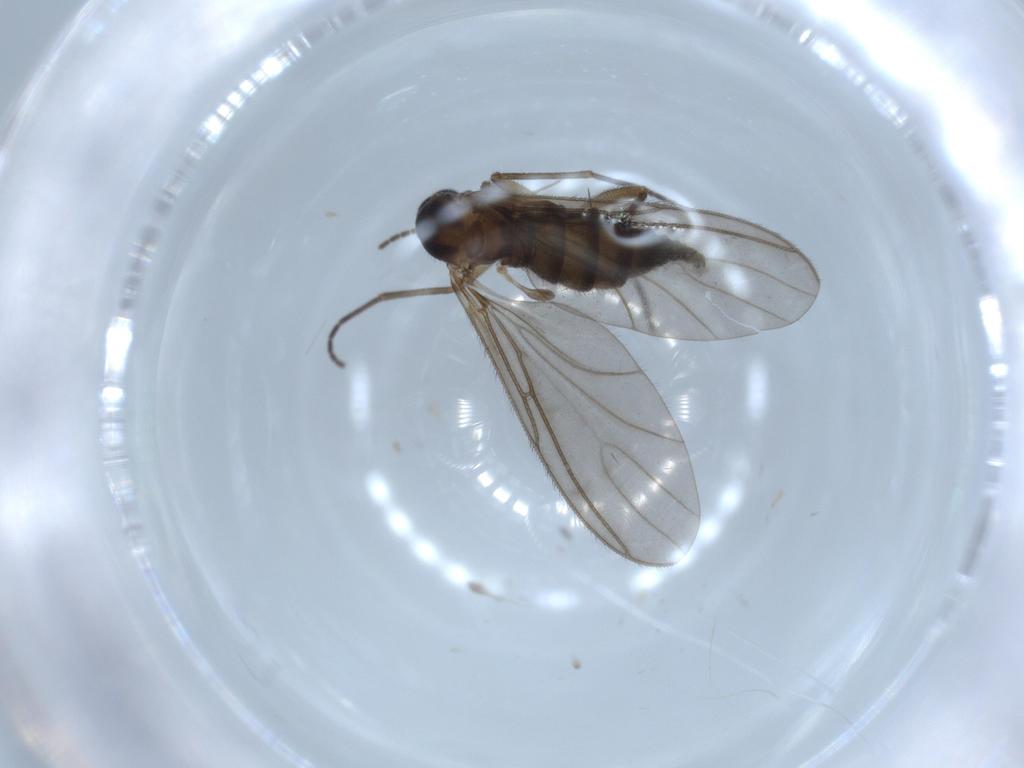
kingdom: Animalia
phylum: Arthropoda
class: Insecta
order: Diptera
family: Sciaridae
